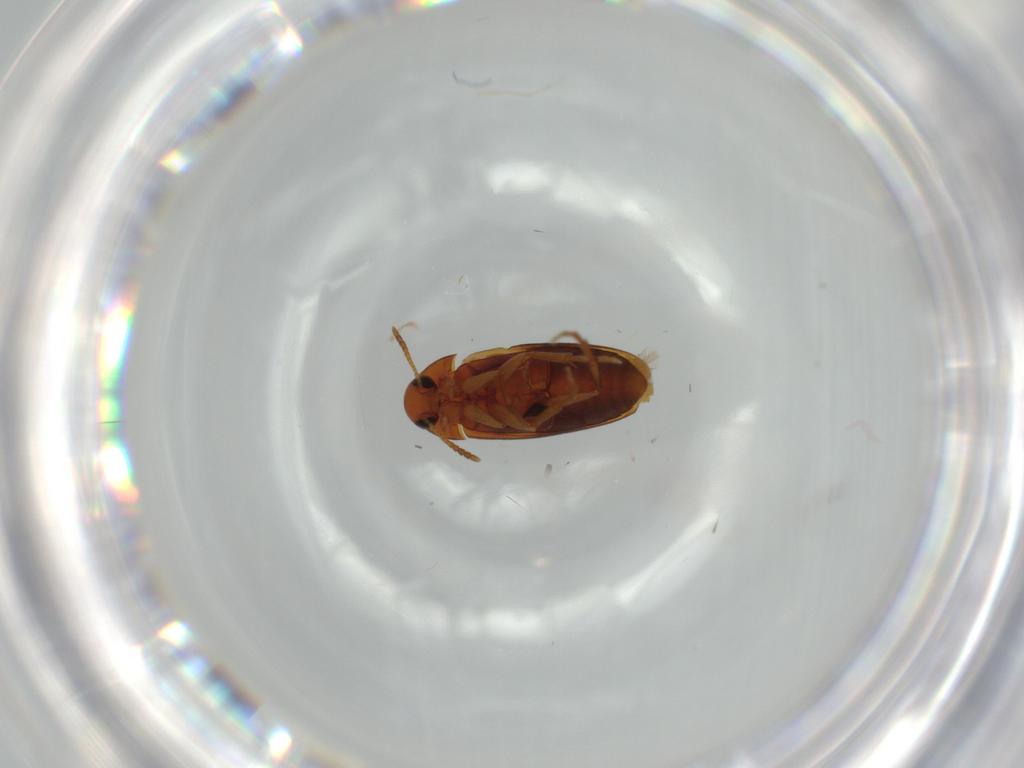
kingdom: Animalia
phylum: Arthropoda
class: Insecta
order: Coleoptera
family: Scraptiidae
